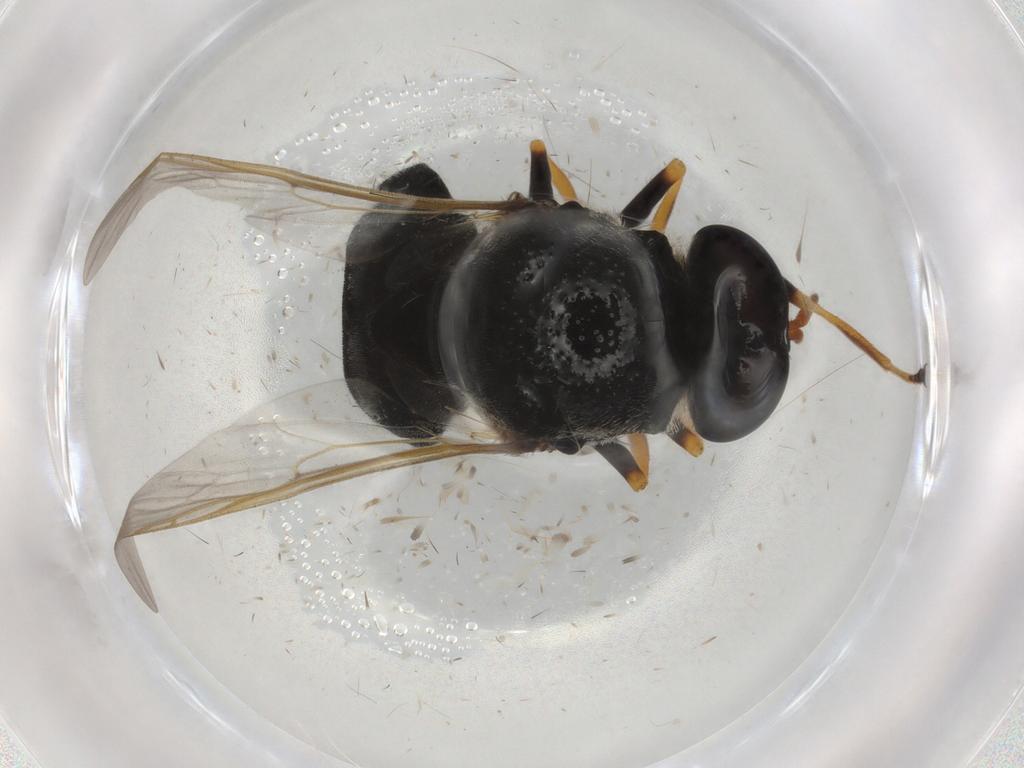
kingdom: Animalia
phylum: Arthropoda
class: Insecta
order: Diptera
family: Stratiomyidae
